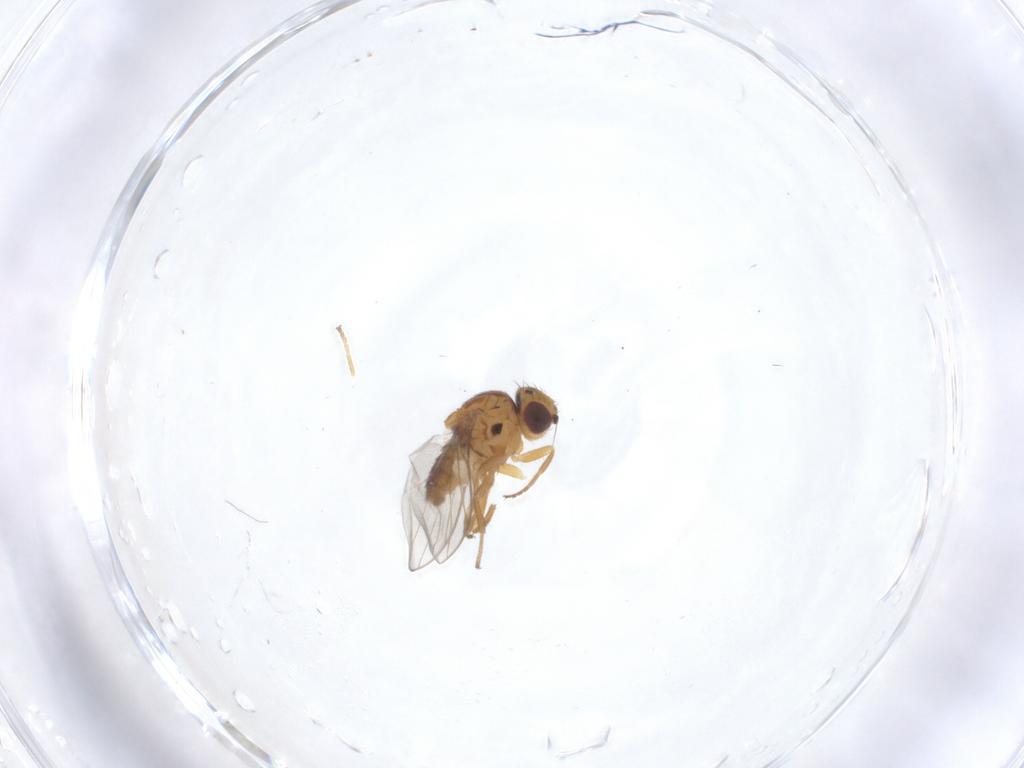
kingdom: Animalia
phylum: Arthropoda
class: Insecta
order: Diptera
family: Chloropidae
